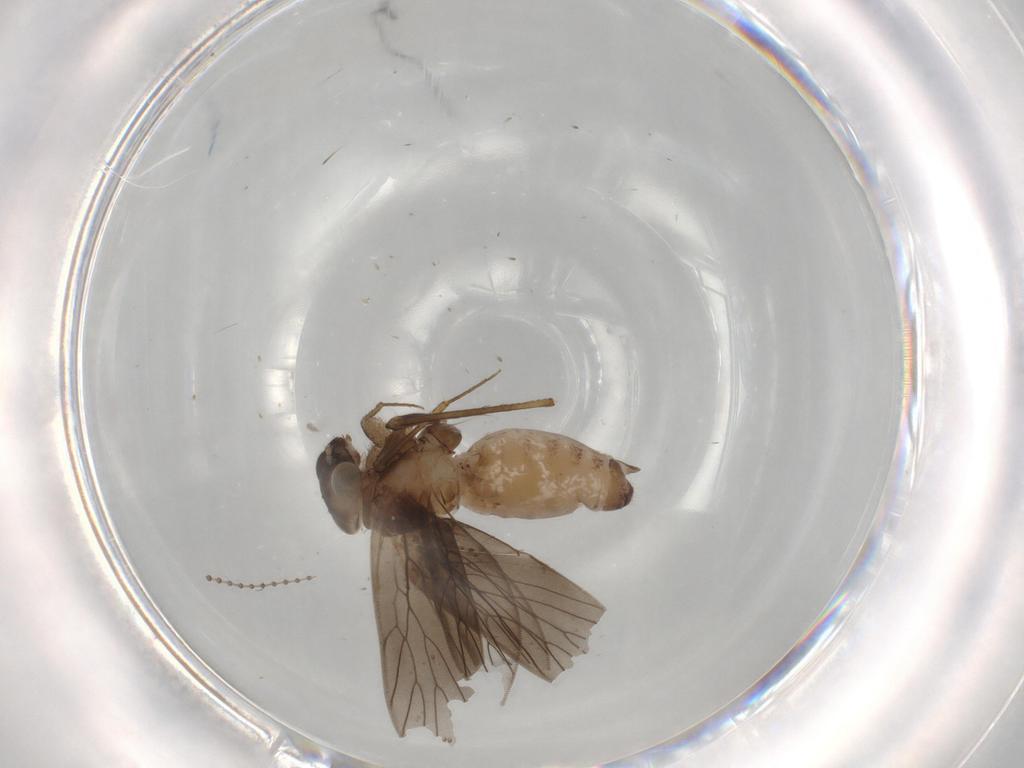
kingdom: Animalia
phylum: Arthropoda
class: Insecta
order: Psocodea
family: Lepidopsocidae
